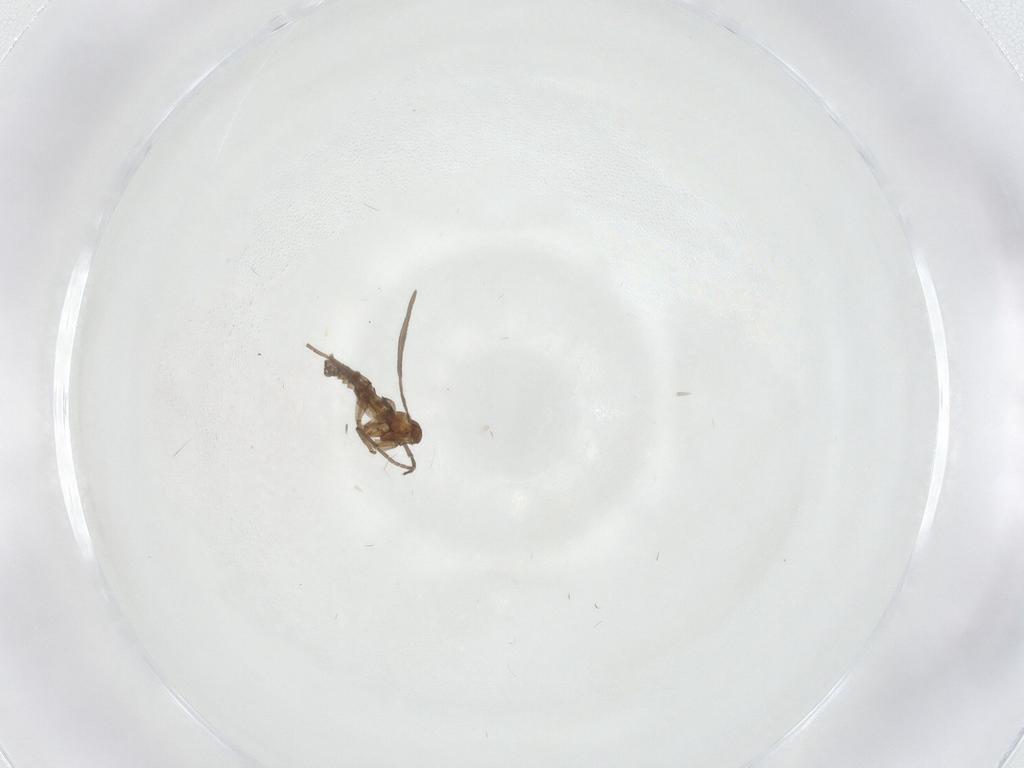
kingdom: Animalia
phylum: Arthropoda
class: Insecta
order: Diptera
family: Sciaridae
